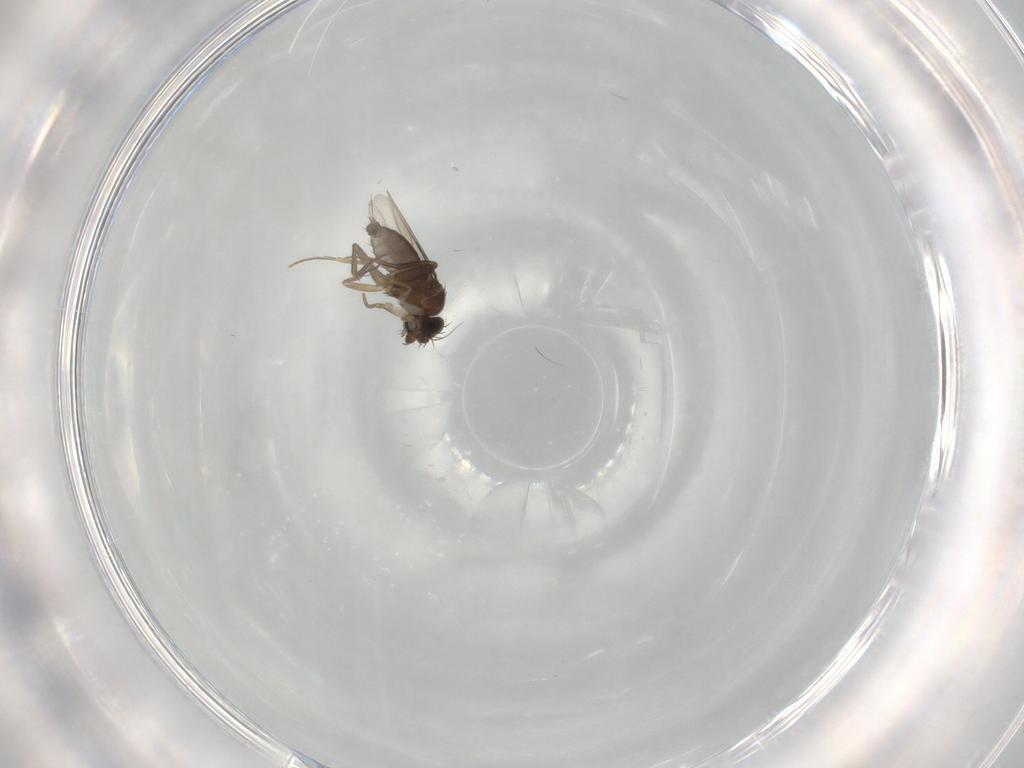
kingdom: Animalia
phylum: Arthropoda
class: Insecta
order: Diptera
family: Phoridae
